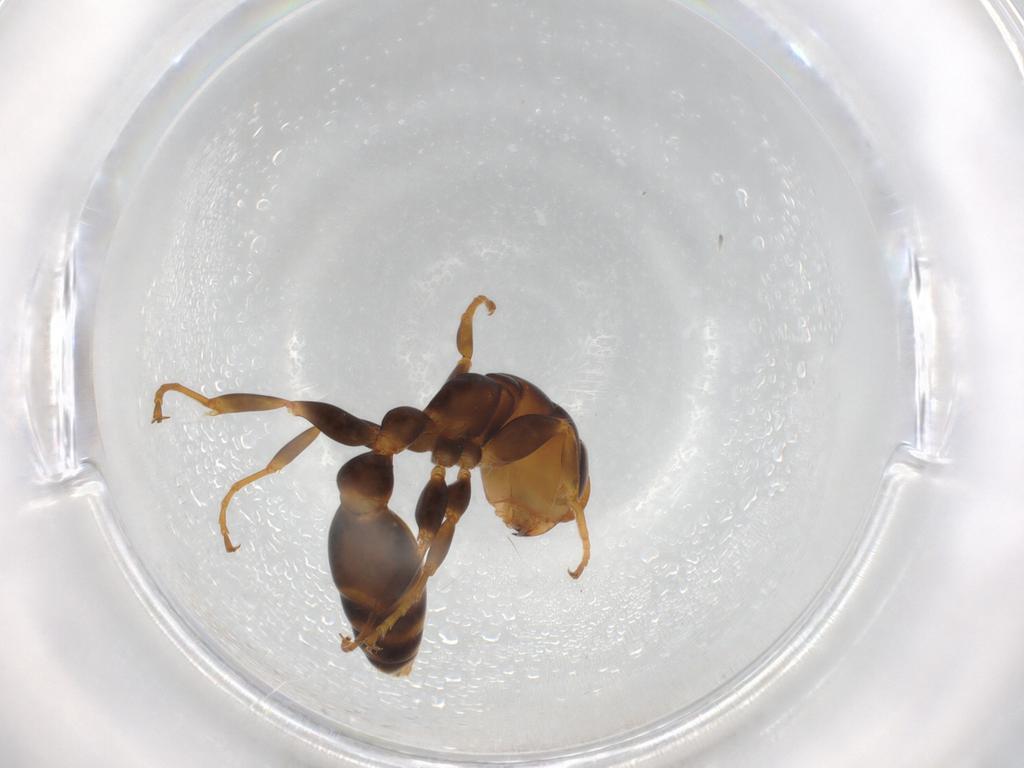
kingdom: Animalia
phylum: Arthropoda
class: Insecta
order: Hymenoptera
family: Formicidae
